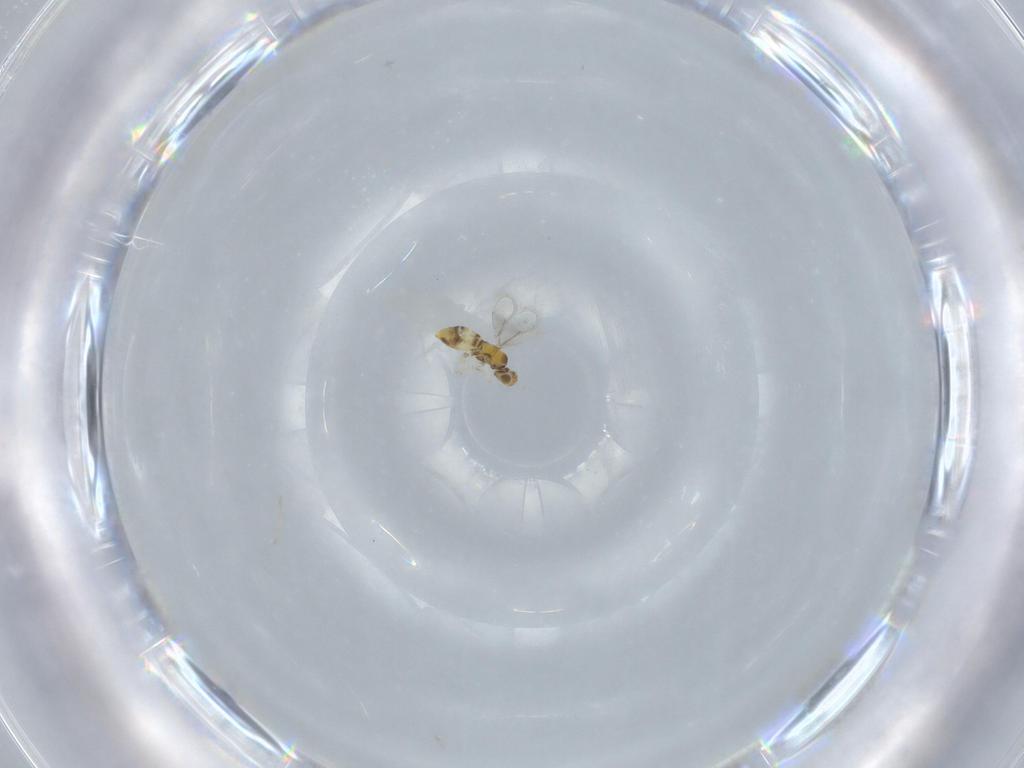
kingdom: Animalia
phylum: Arthropoda
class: Insecta
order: Hymenoptera
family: Aphelinidae
